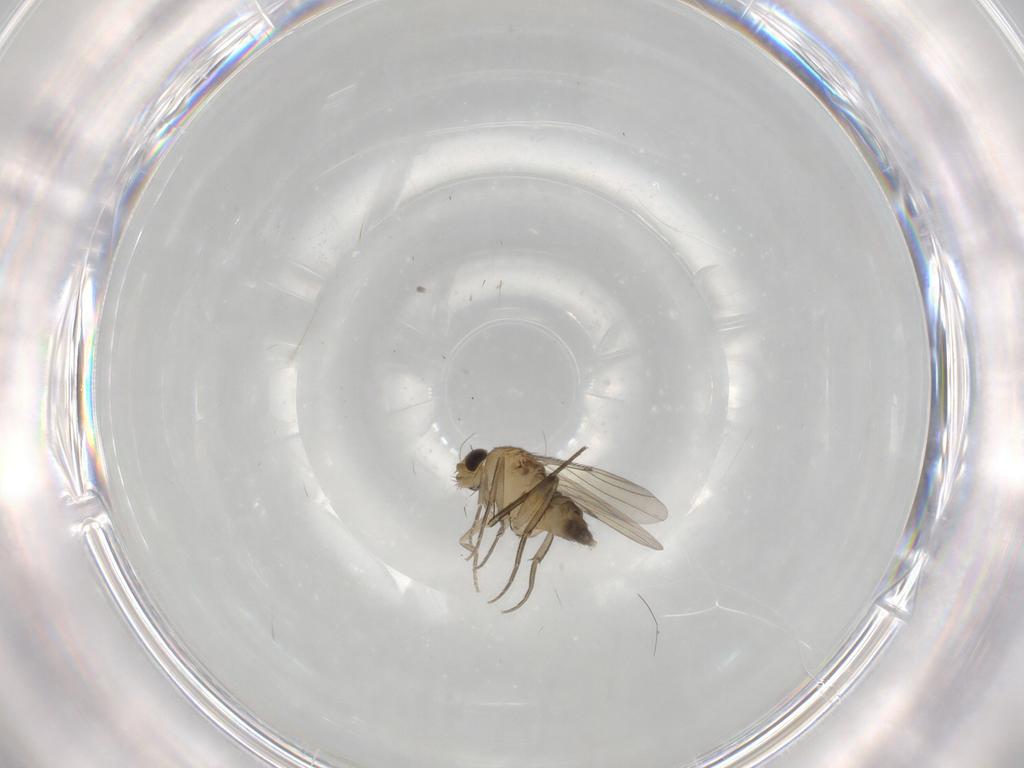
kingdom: Animalia
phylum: Arthropoda
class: Insecta
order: Diptera
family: Phoridae
